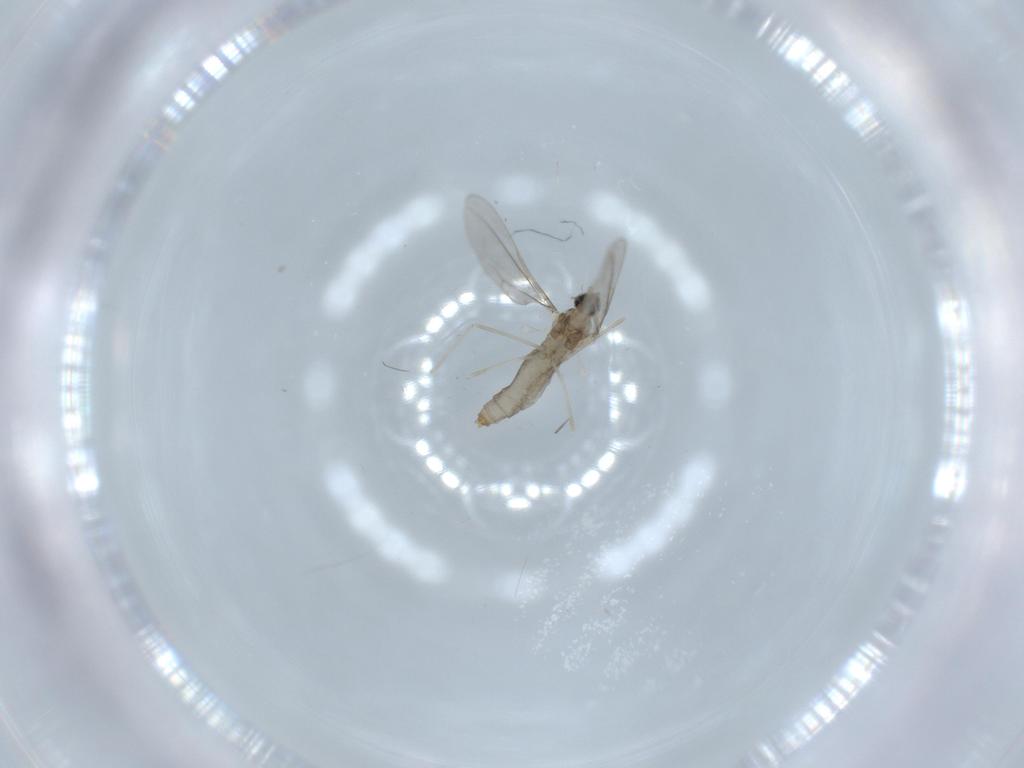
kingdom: Animalia
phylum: Arthropoda
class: Insecta
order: Diptera
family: Cecidomyiidae
